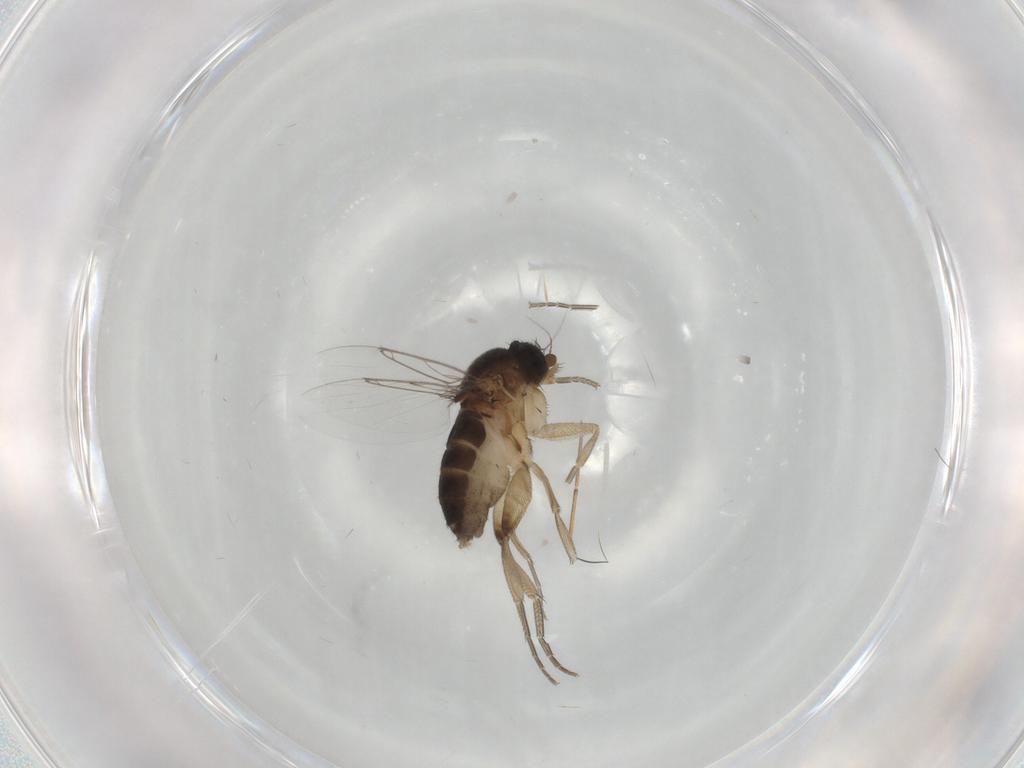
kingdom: Animalia
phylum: Arthropoda
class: Insecta
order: Diptera
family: Phoridae
